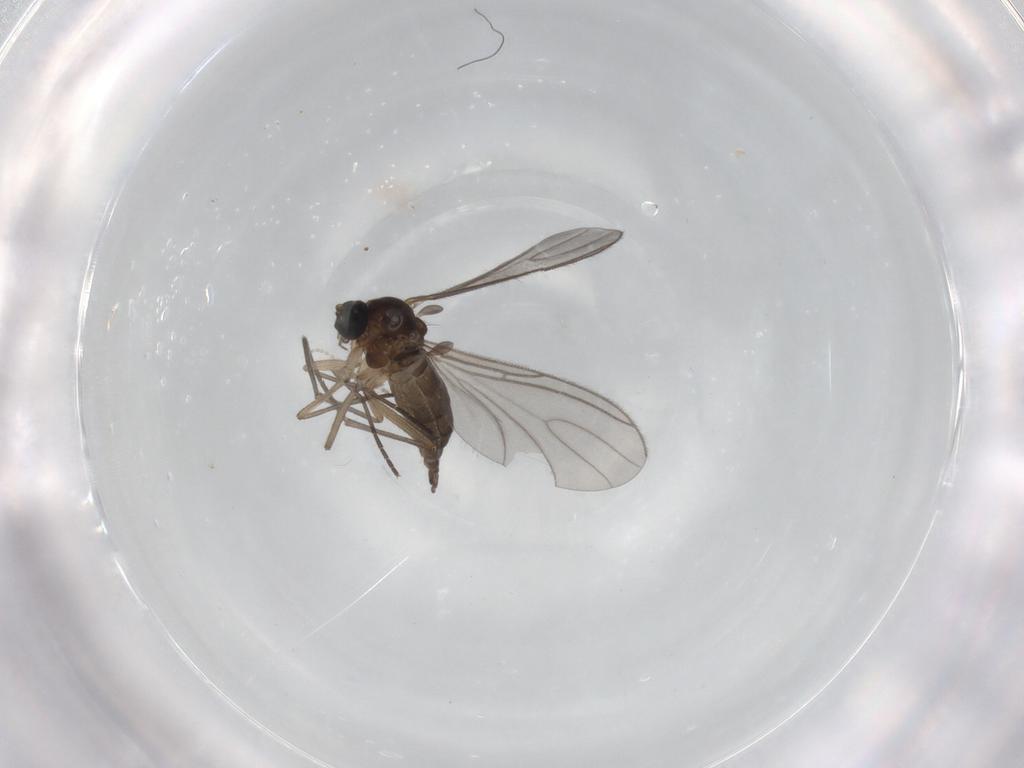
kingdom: Animalia
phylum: Arthropoda
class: Insecta
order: Diptera
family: Sciaridae
